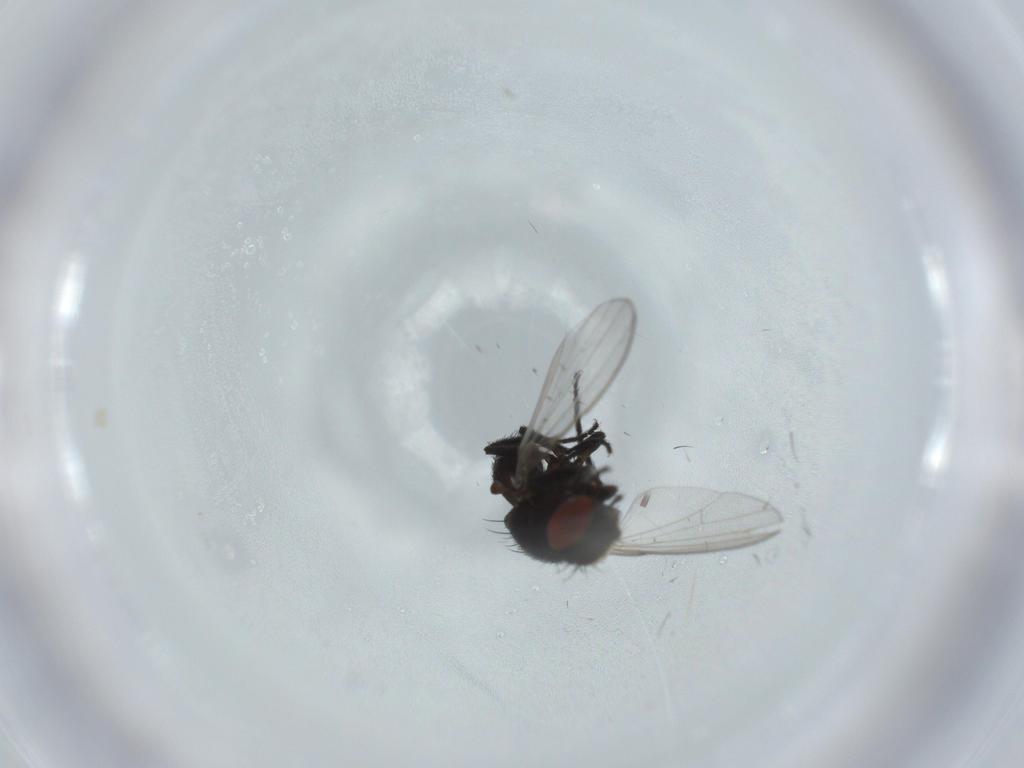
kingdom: Animalia
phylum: Arthropoda
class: Insecta
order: Diptera
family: Milichiidae
